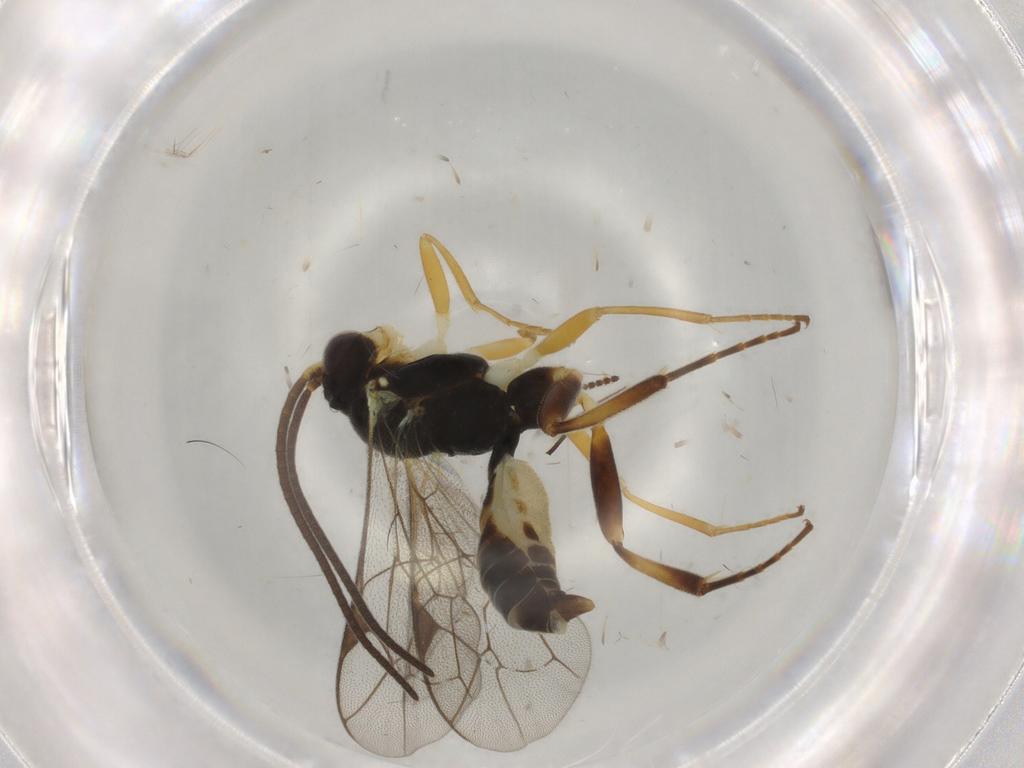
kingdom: Animalia
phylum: Arthropoda
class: Insecta
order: Hymenoptera
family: Ichneumonidae
